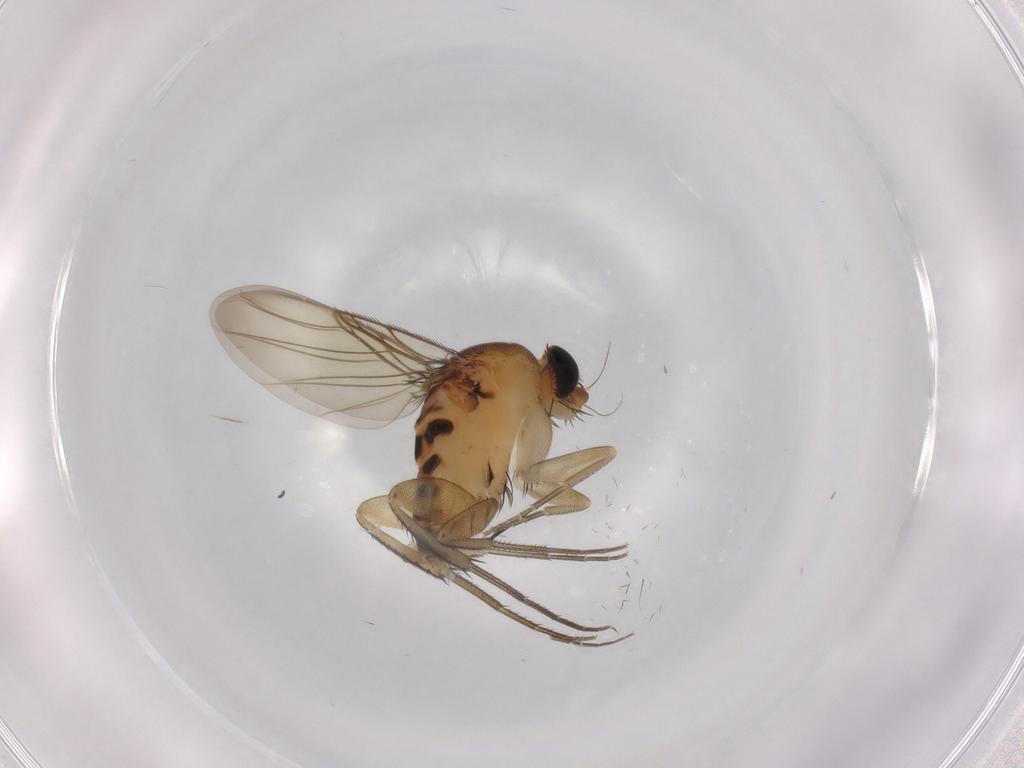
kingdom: Animalia
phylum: Arthropoda
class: Insecta
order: Diptera
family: Phoridae
